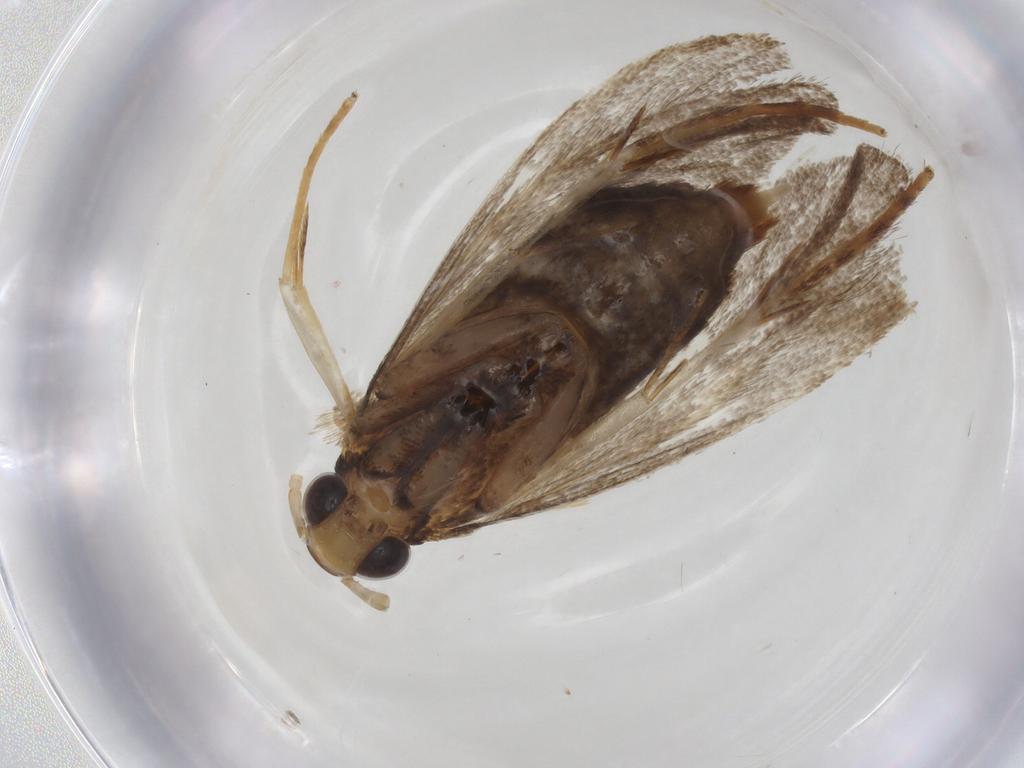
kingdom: Animalia
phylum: Arthropoda
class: Insecta
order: Lepidoptera
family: Lecithoceridae
